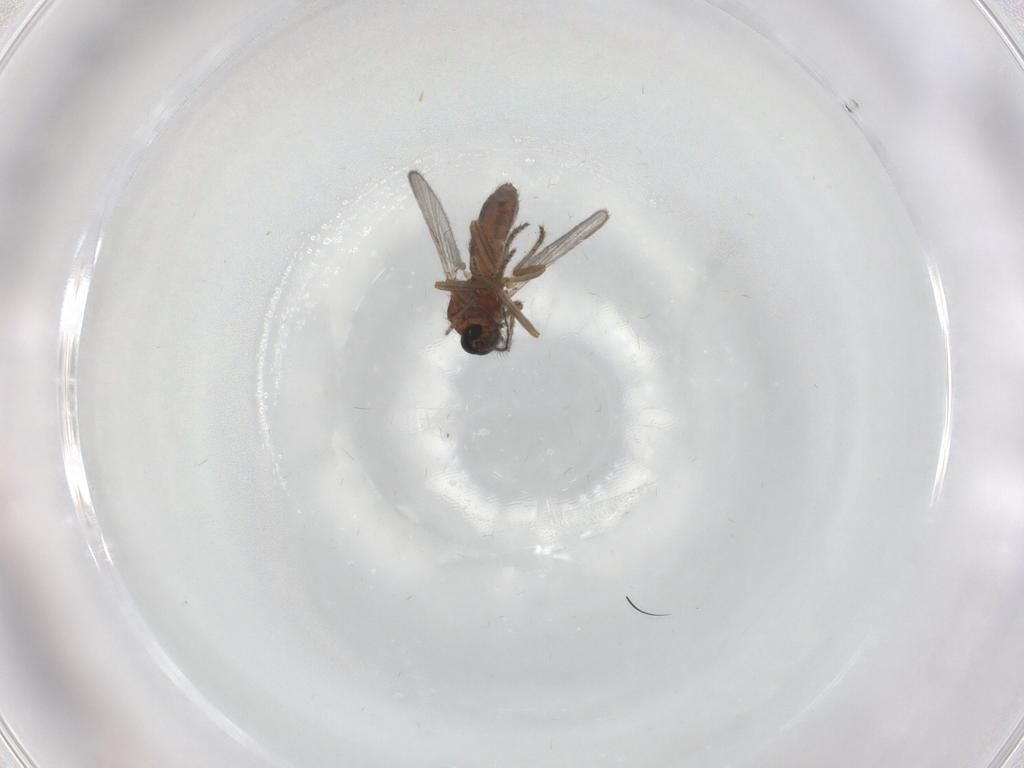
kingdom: Animalia
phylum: Arthropoda
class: Insecta
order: Diptera
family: Ceratopogonidae
